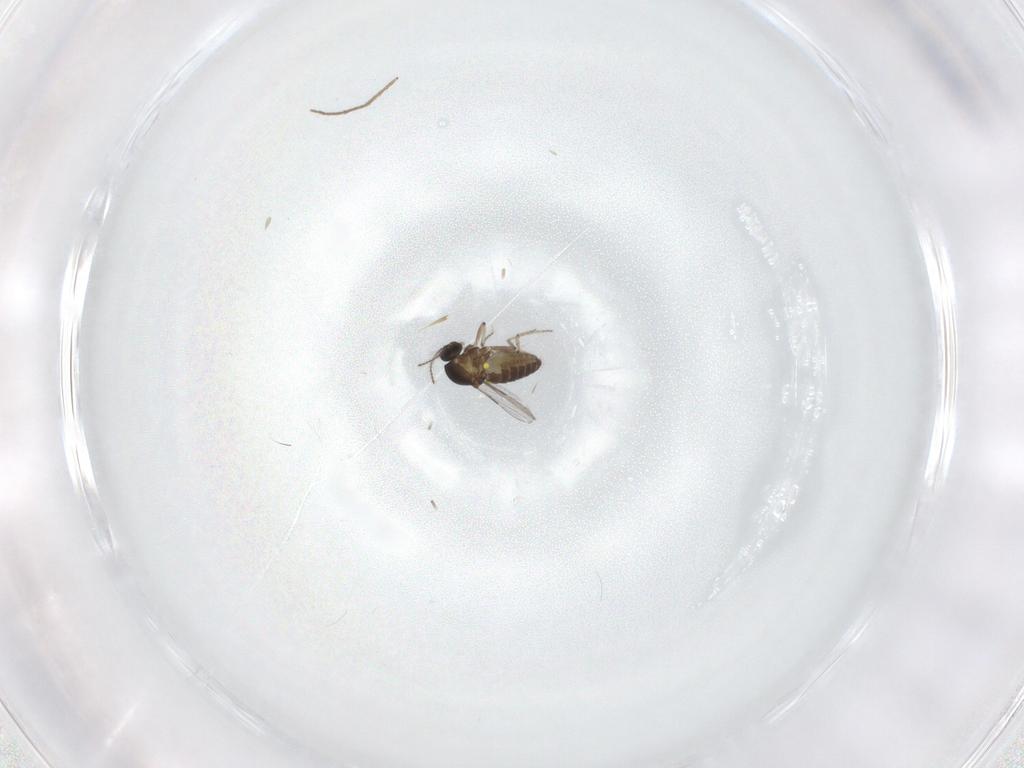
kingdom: Animalia
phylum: Arthropoda
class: Insecta
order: Diptera
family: Ceratopogonidae
